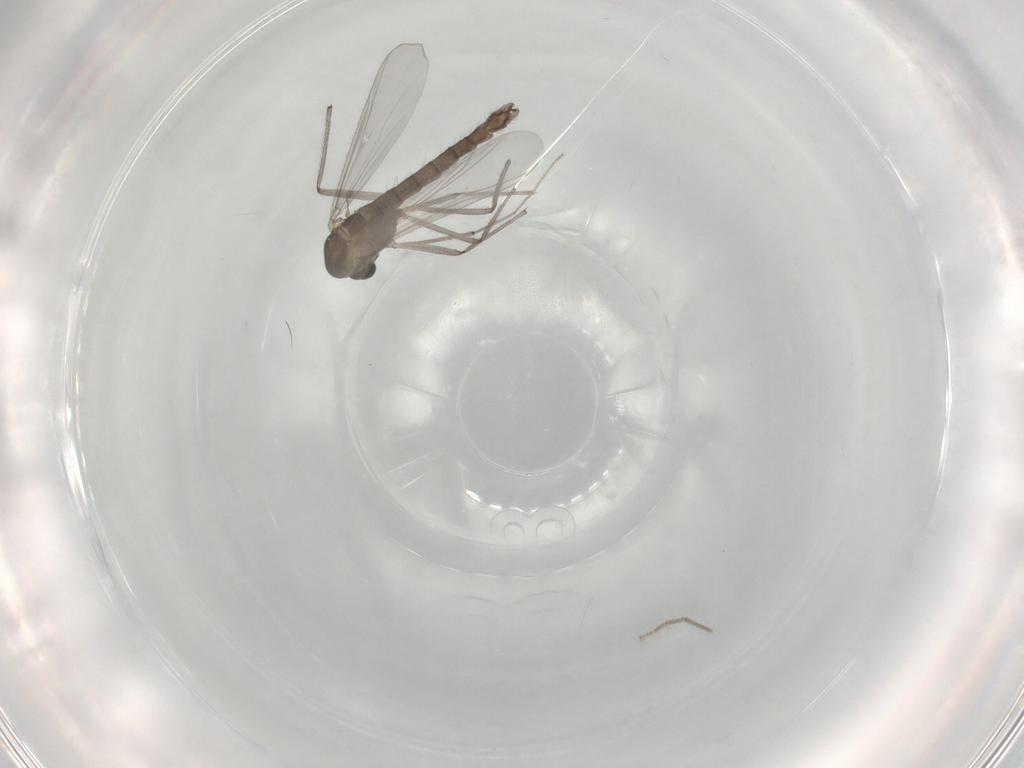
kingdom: Animalia
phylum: Arthropoda
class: Insecta
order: Diptera
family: Chironomidae
